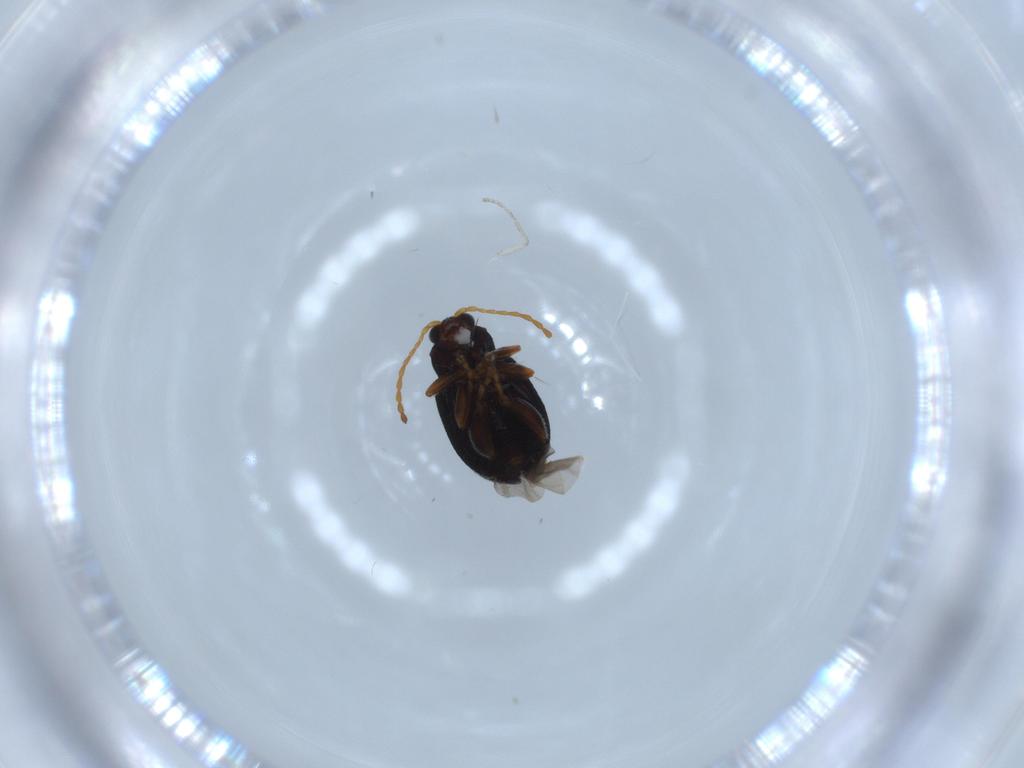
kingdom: Animalia
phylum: Arthropoda
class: Insecta
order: Coleoptera
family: Chrysomelidae
